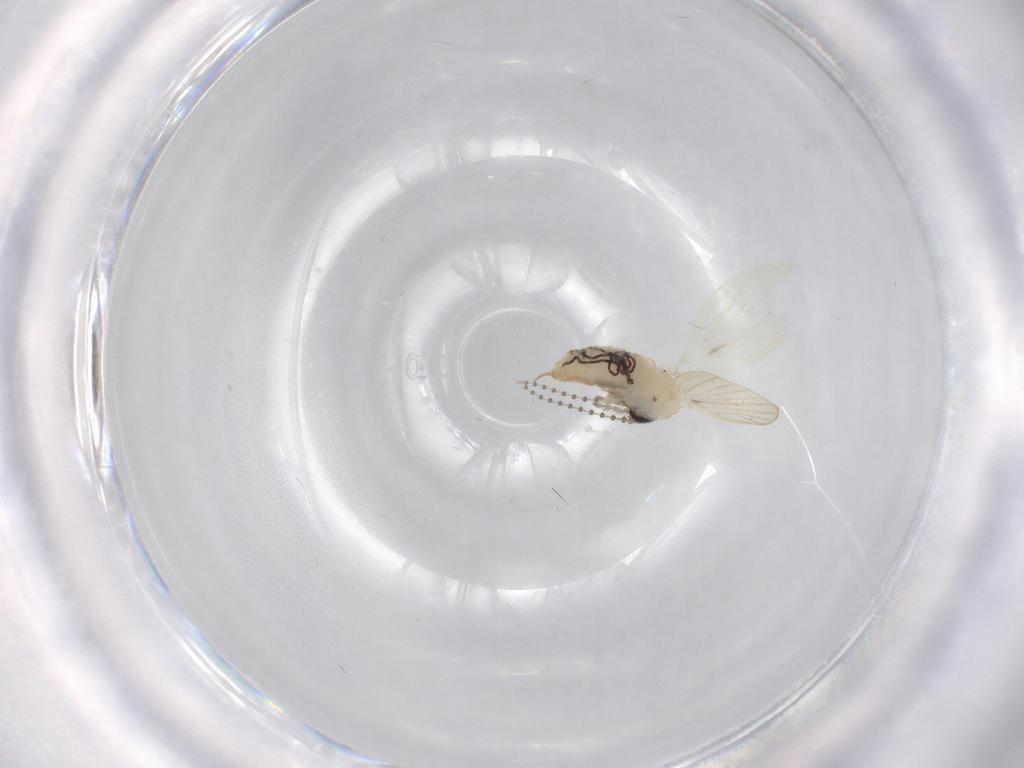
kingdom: Animalia
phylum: Arthropoda
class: Insecta
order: Diptera
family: Psychodidae
